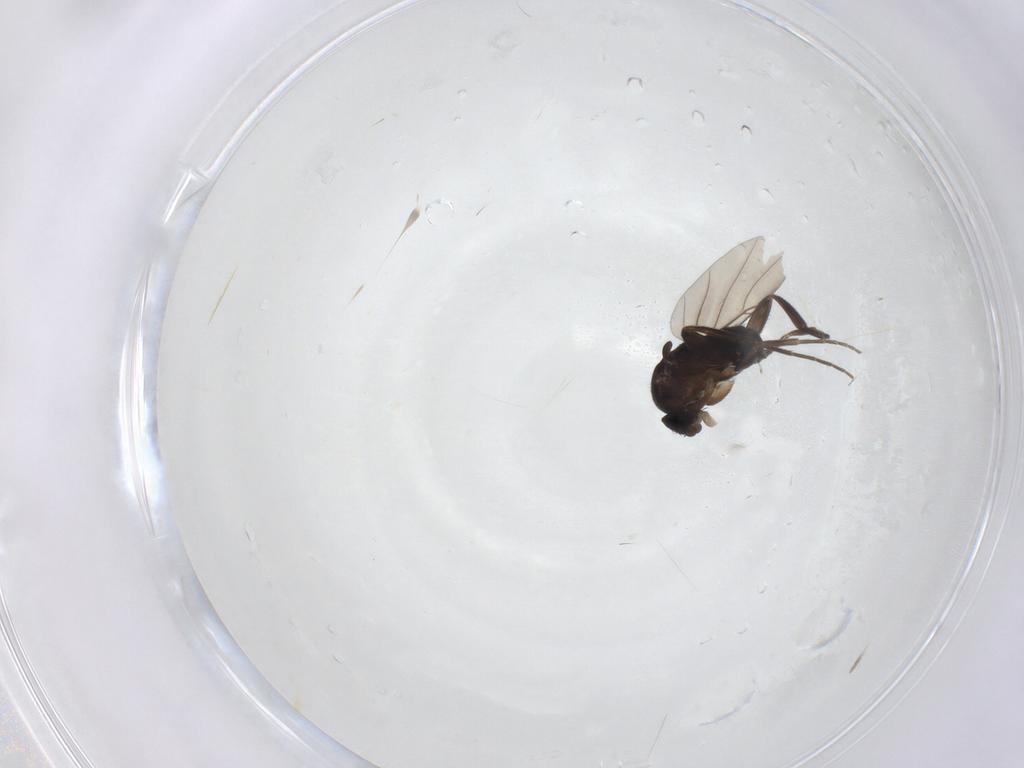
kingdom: Animalia
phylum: Arthropoda
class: Insecta
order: Diptera
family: Phoridae
